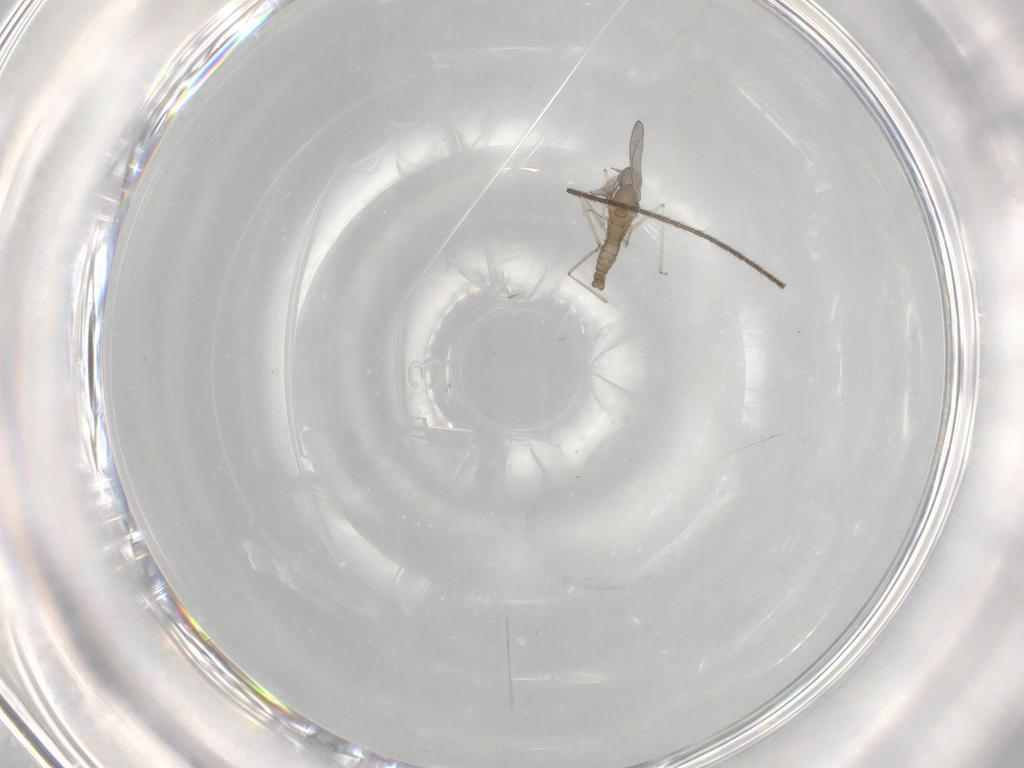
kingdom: Animalia
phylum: Arthropoda
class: Insecta
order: Diptera
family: Cecidomyiidae
